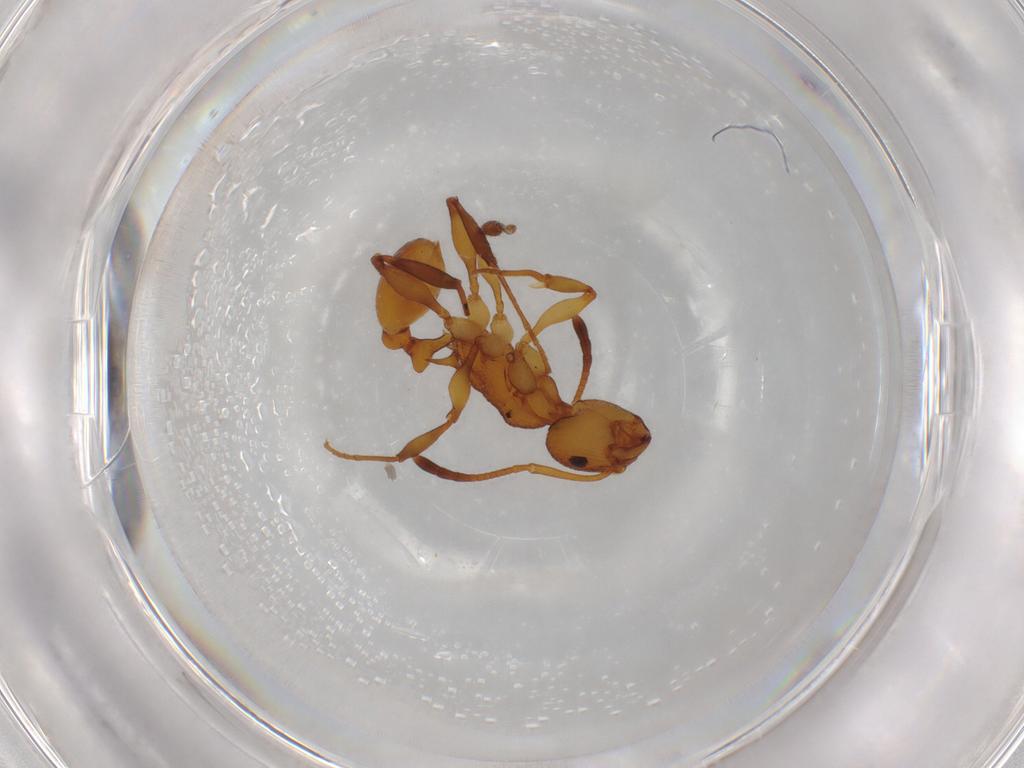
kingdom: Animalia
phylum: Arthropoda
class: Insecta
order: Hymenoptera
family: Formicidae
